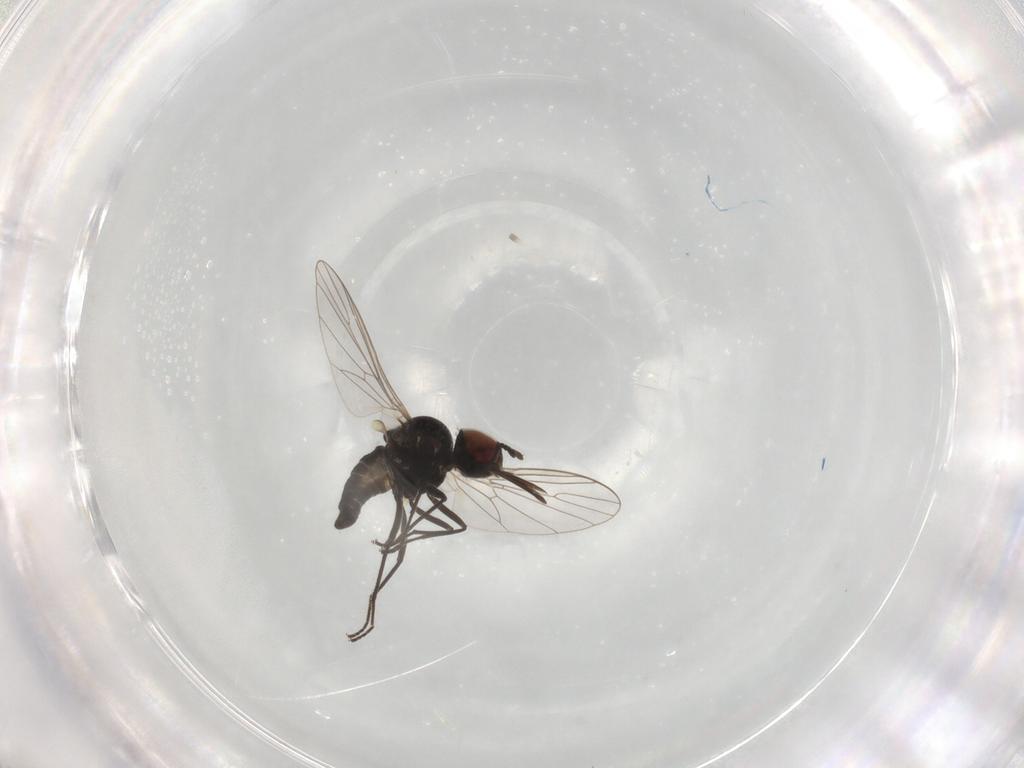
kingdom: Animalia
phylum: Arthropoda
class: Insecta
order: Diptera
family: Bombyliidae
